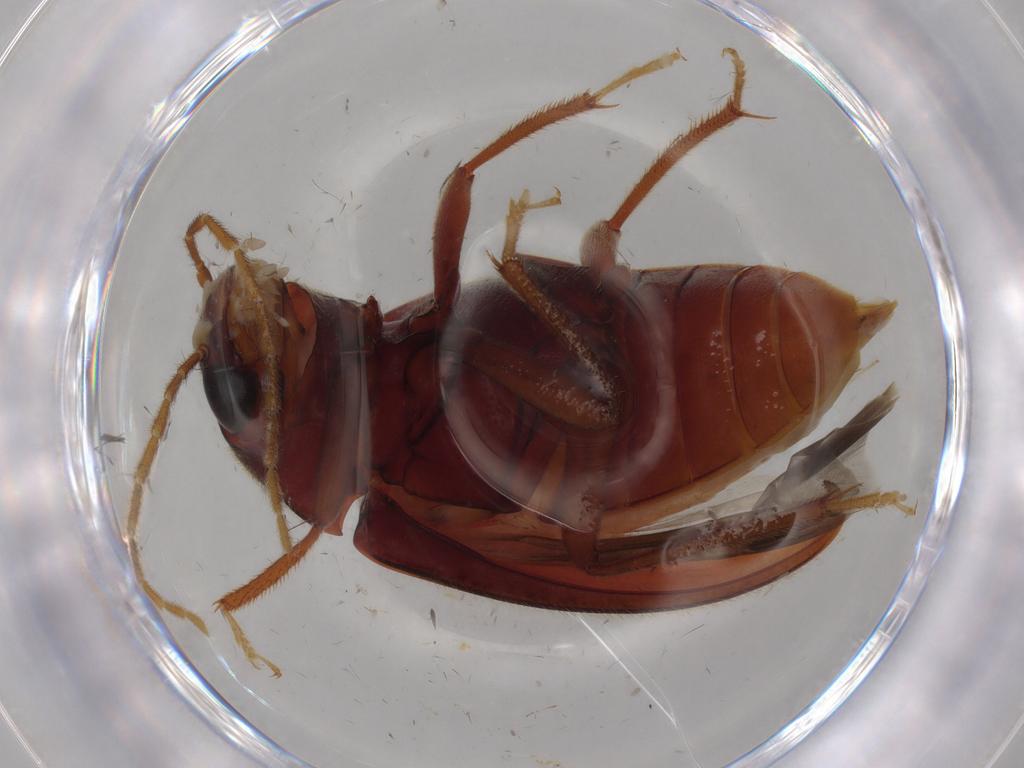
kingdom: Animalia
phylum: Arthropoda
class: Insecta
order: Coleoptera
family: Ptilodactylidae
